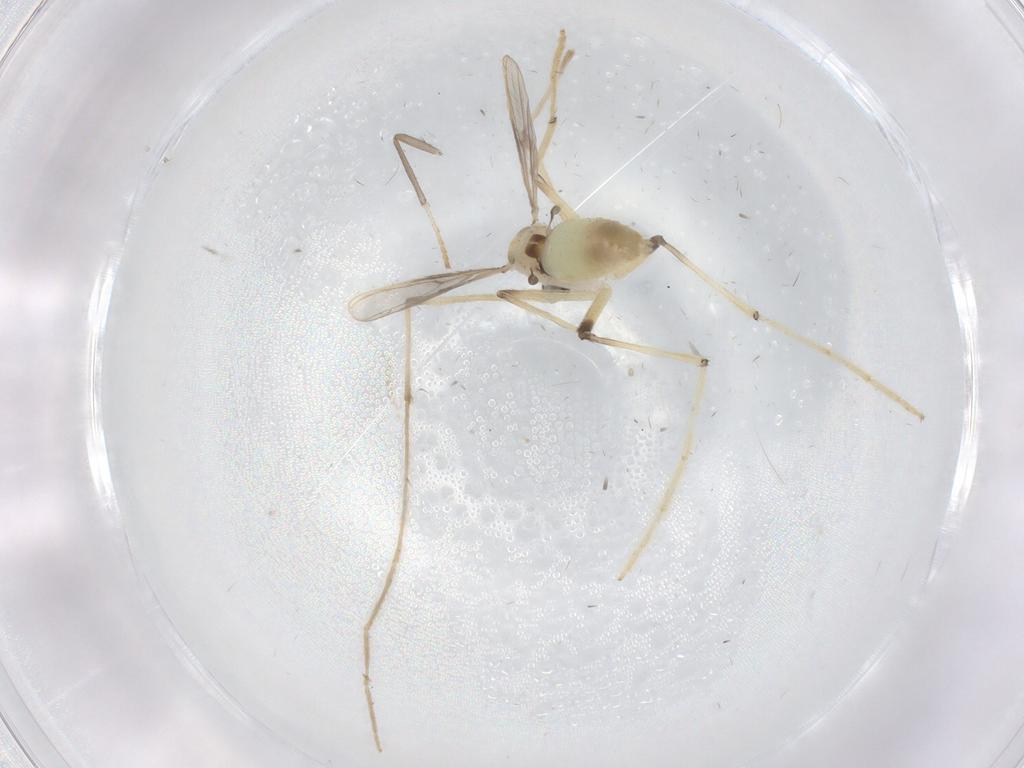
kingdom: Animalia
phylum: Arthropoda
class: Insecta
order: Diptera
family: Chironomidae
